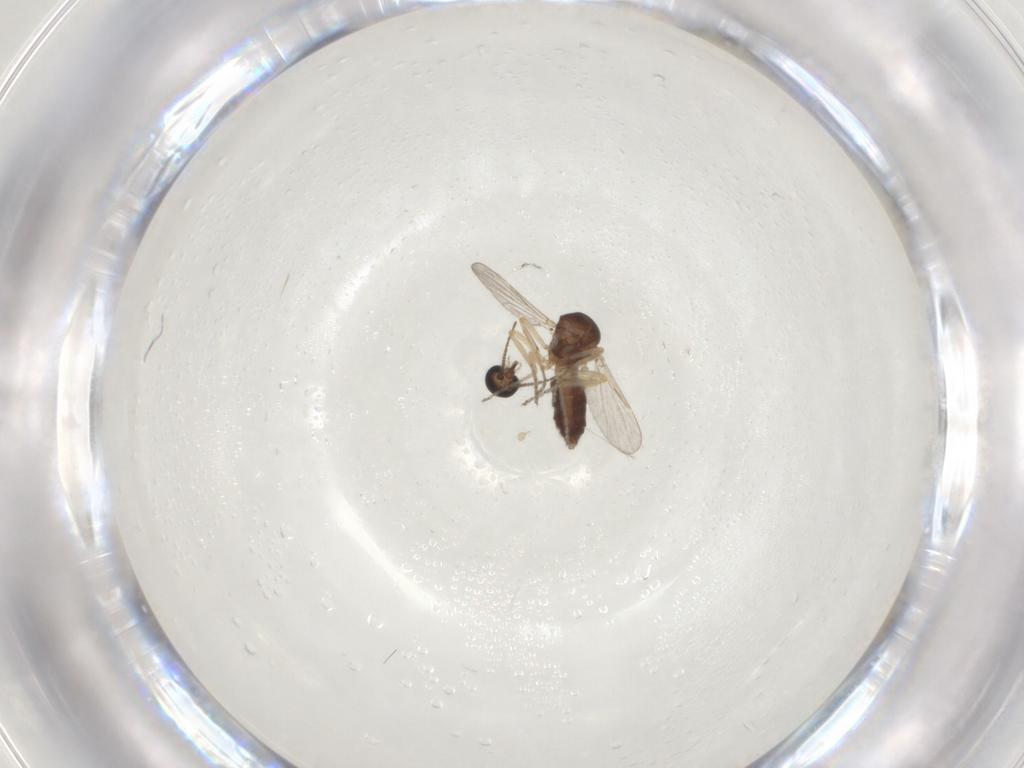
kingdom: Animalia
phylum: Arthropoda
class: Insecta
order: Diptera
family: Ceratopogonidae
